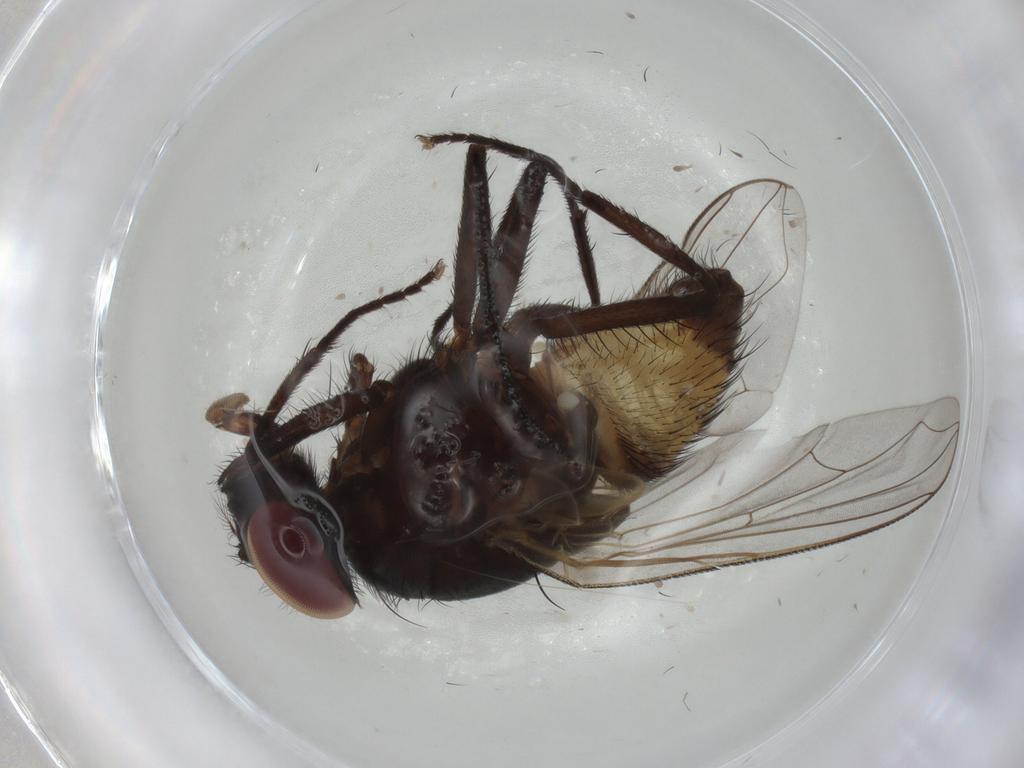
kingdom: Animalia
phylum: Arthropoda
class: Insecta
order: Diptera
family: Muscidae
